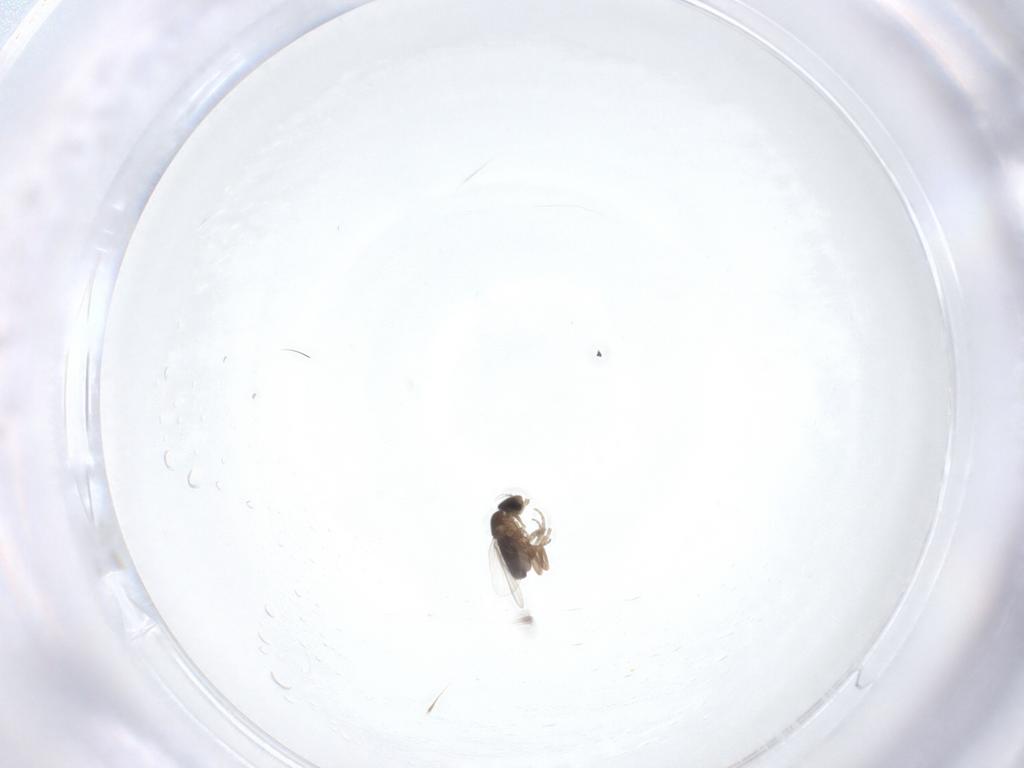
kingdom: Animalia
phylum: Arthropoda
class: Insecta
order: Diptera
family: Phoridae
